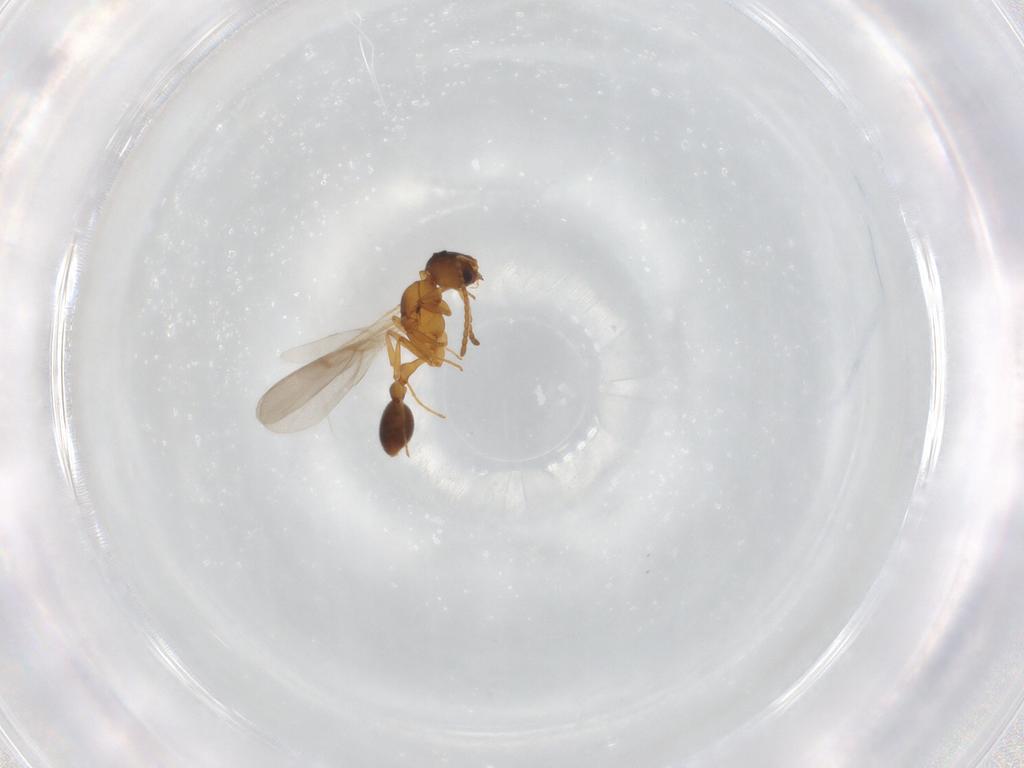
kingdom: Animalia
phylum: Arthropoda
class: Insecta
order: Hymenoptera
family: Formicidae
